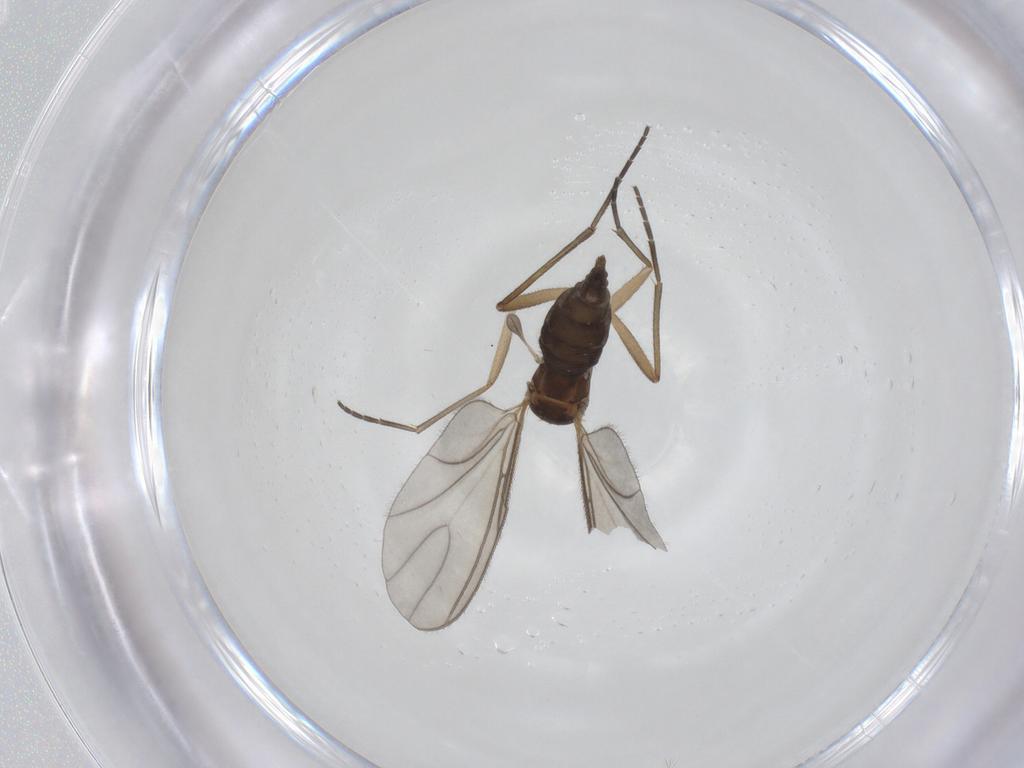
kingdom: Animalia
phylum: Arthropoda
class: Insecta
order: Diptera
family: Sciaridae
